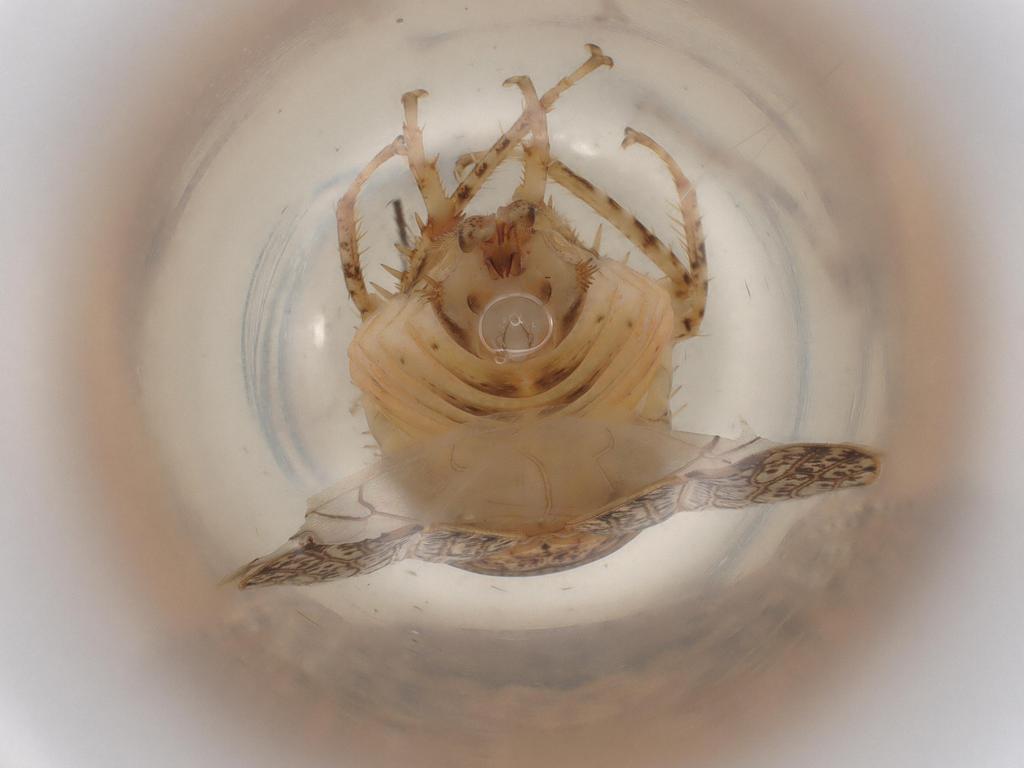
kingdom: Animalia
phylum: Arthropoda
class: Insecta
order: Hemiptera
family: Cicadellidae
